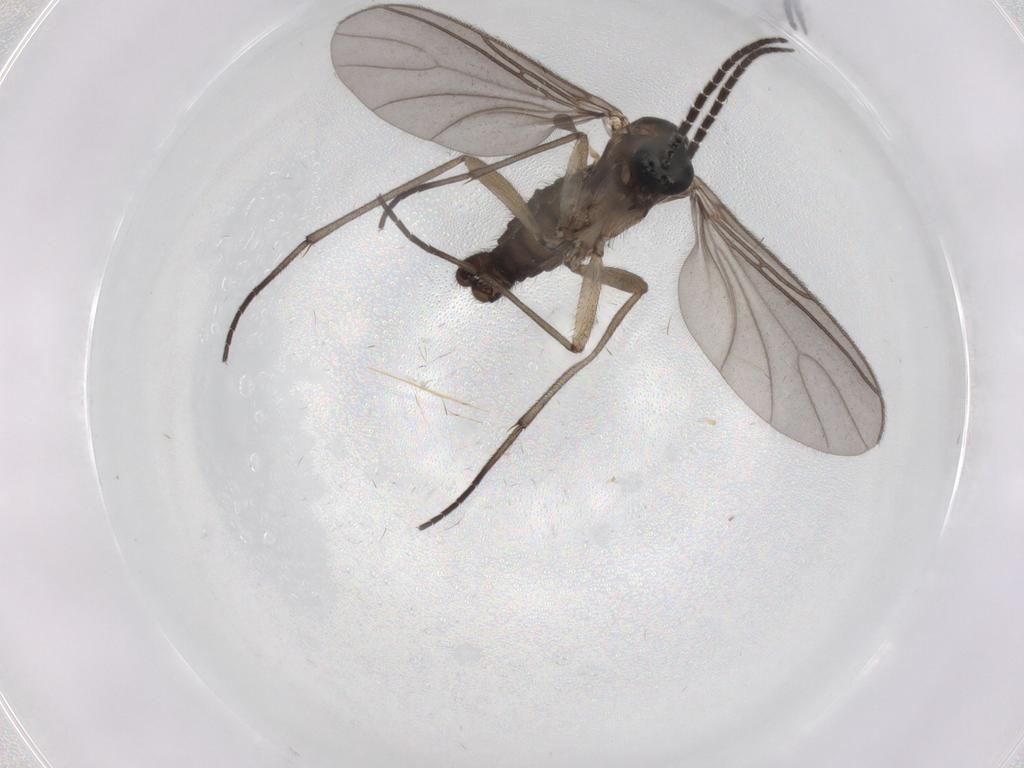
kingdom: Animalia
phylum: Arthropoda
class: Insecta
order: Diptera
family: Sciaridae
